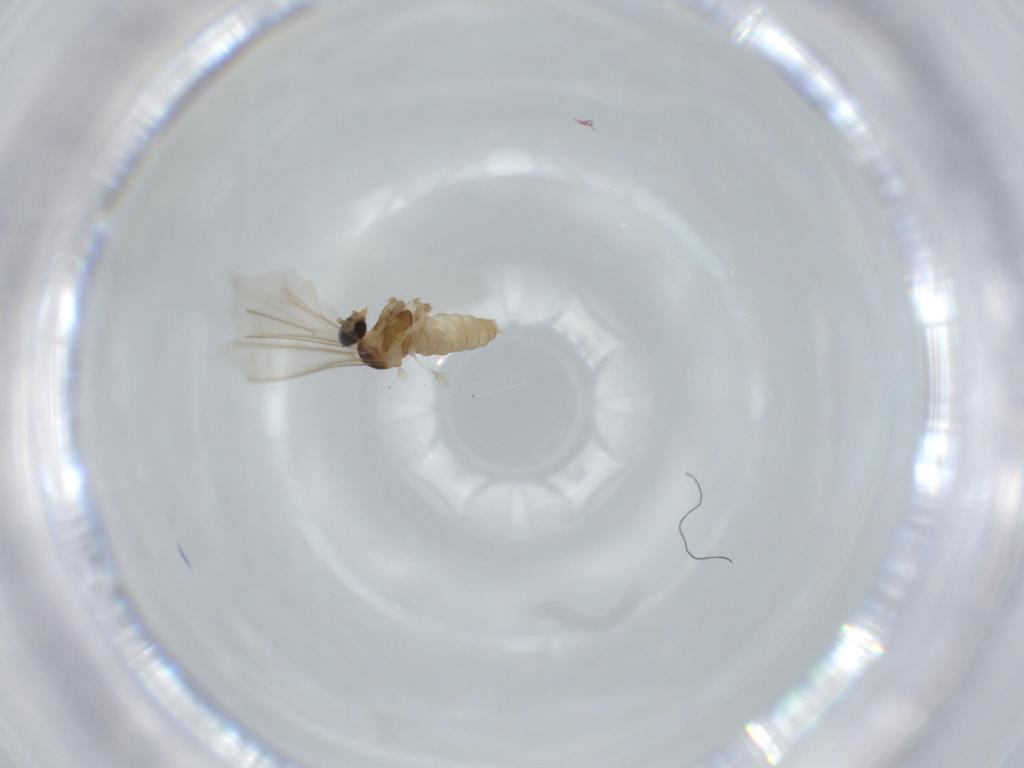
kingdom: Animalia
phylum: Arthropoda
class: Insecta
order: Diptera
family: Cecidomyiidae
